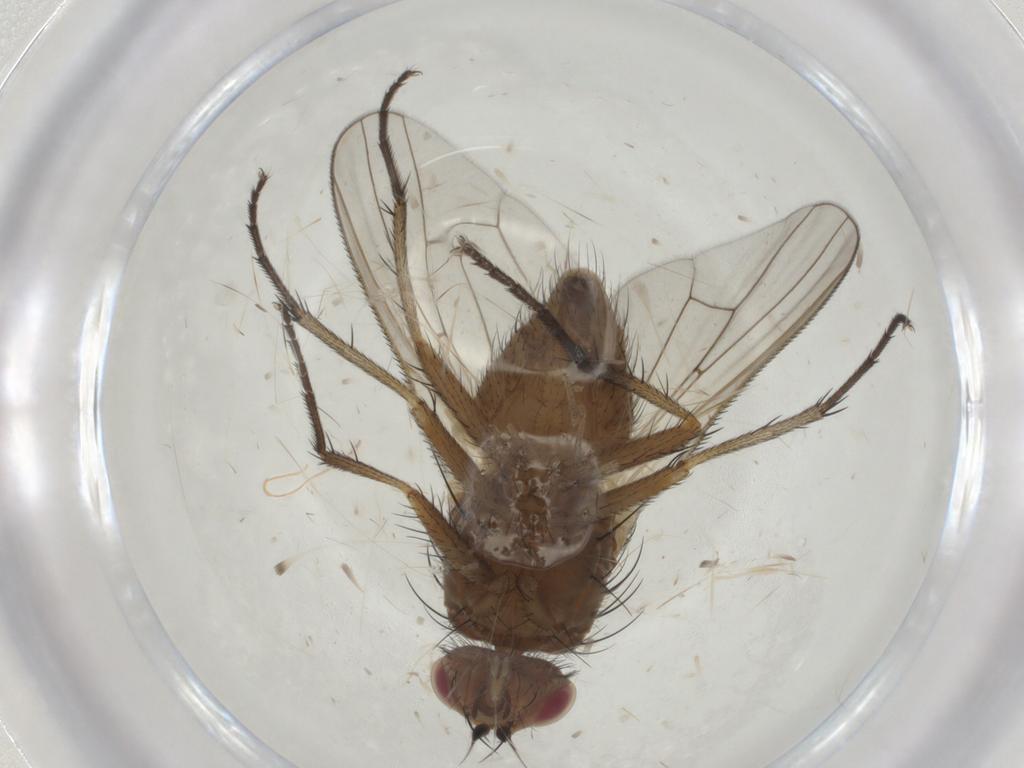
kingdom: Animalia
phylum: Arthropoda
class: Insecta
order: Diptera
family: Anthomyiidae
